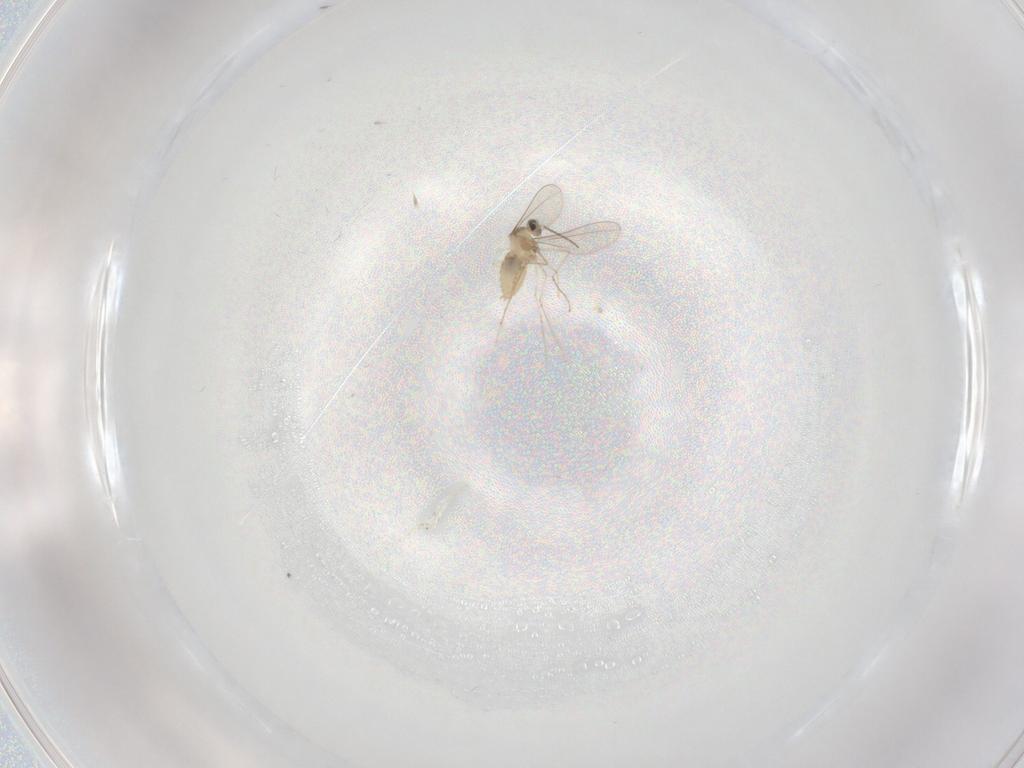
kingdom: Animalia
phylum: Arthropoda
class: Insecta
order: Diptera
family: Cecidomyiidae
